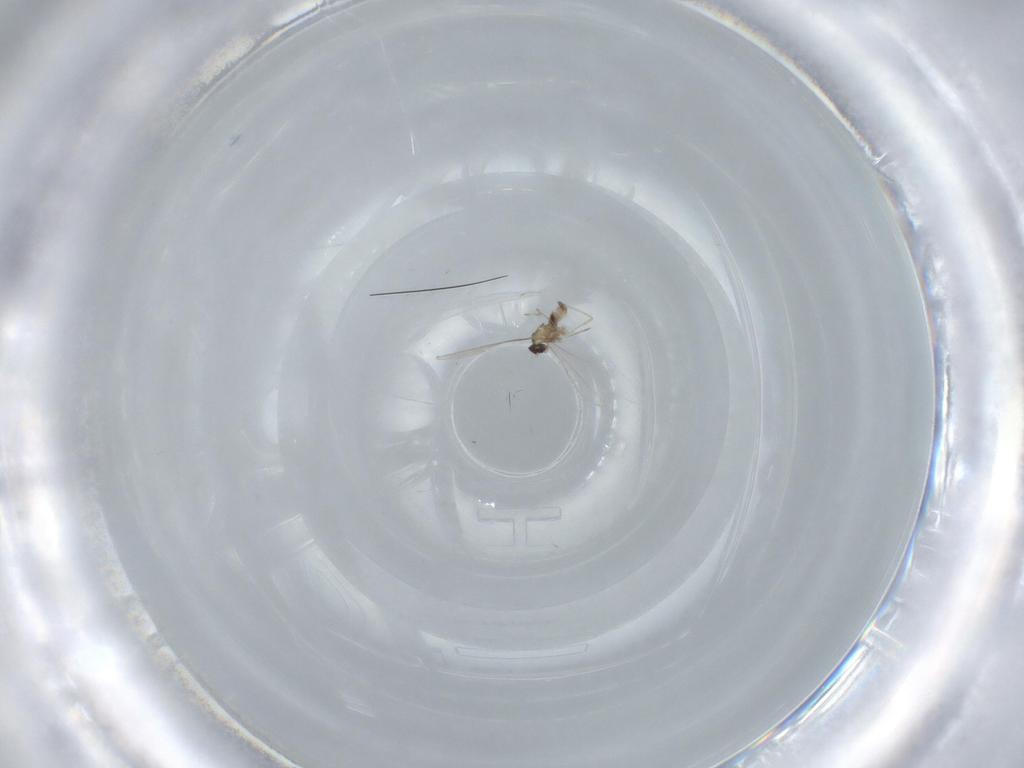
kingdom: Animalia
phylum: Arthropoda
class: Insecta
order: Diptera
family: Cecidomyiidae
